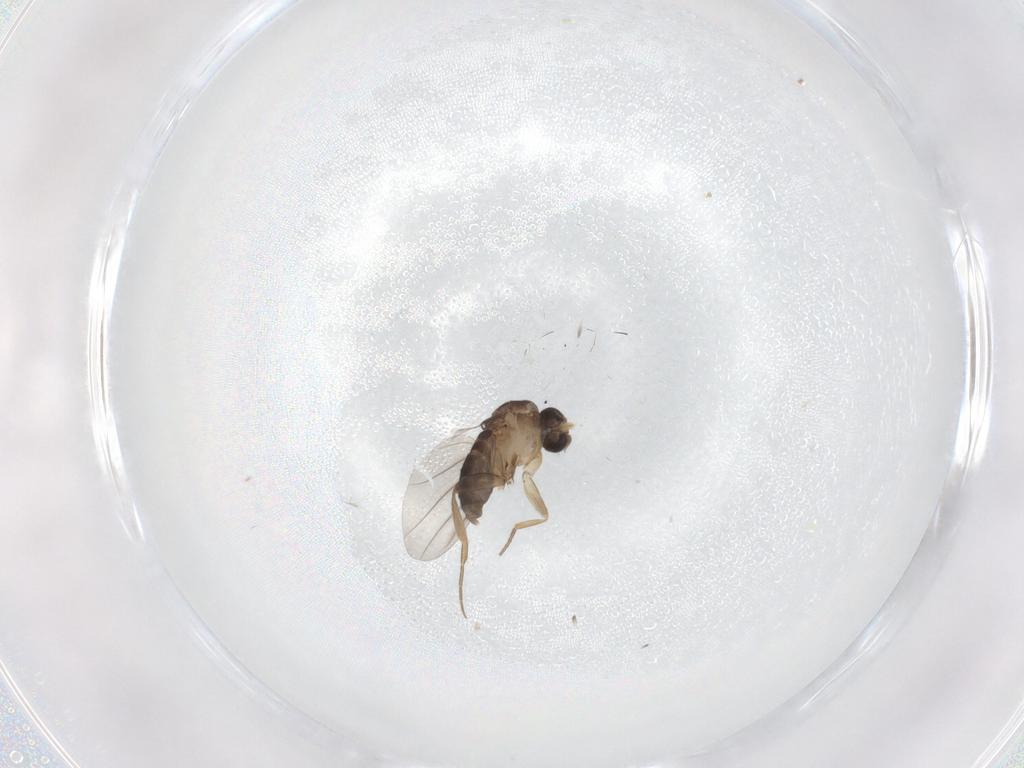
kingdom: Animalia
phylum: Arthropoda
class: Insecta
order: Diptera
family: Phoridae
